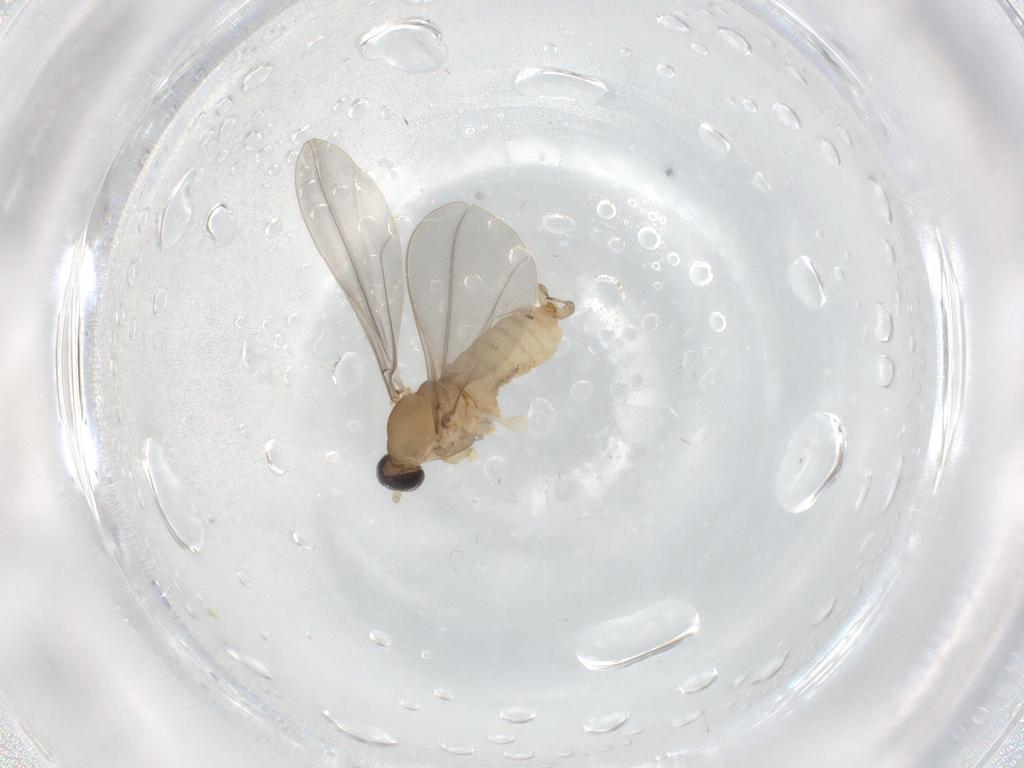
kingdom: Animalia
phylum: Arthropoda
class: Insecta
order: Diptera
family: Cecidomyiidae
